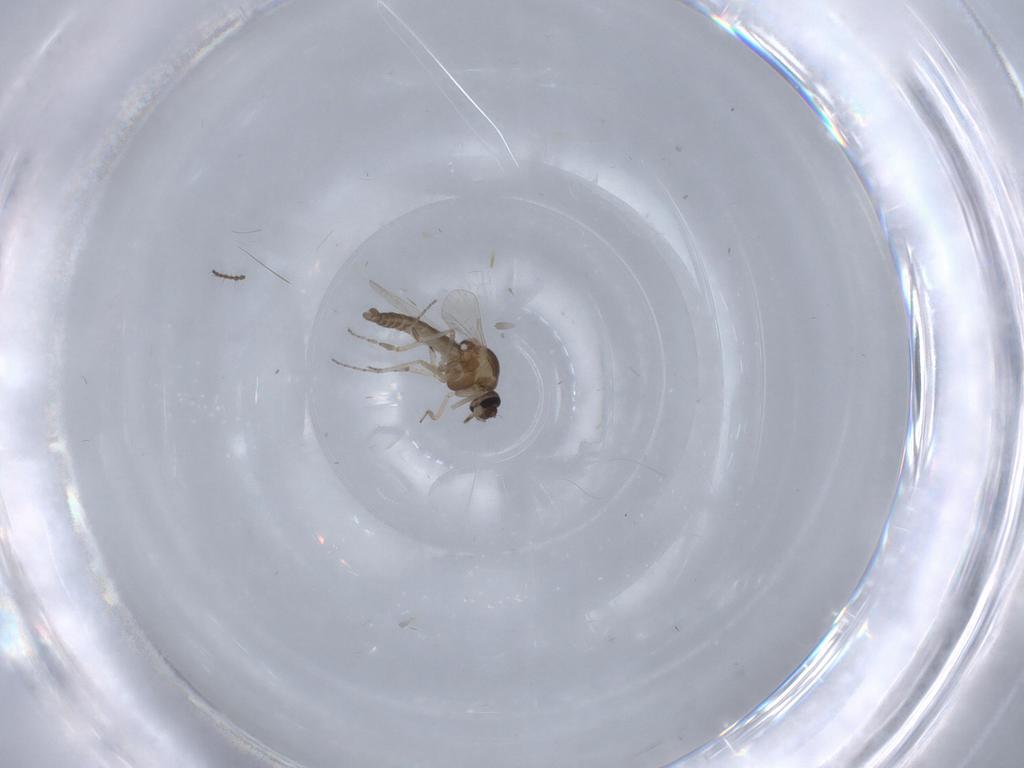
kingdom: Animalia
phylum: Arthropoda
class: Insecta
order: Diptera
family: Ceratopogonidae
